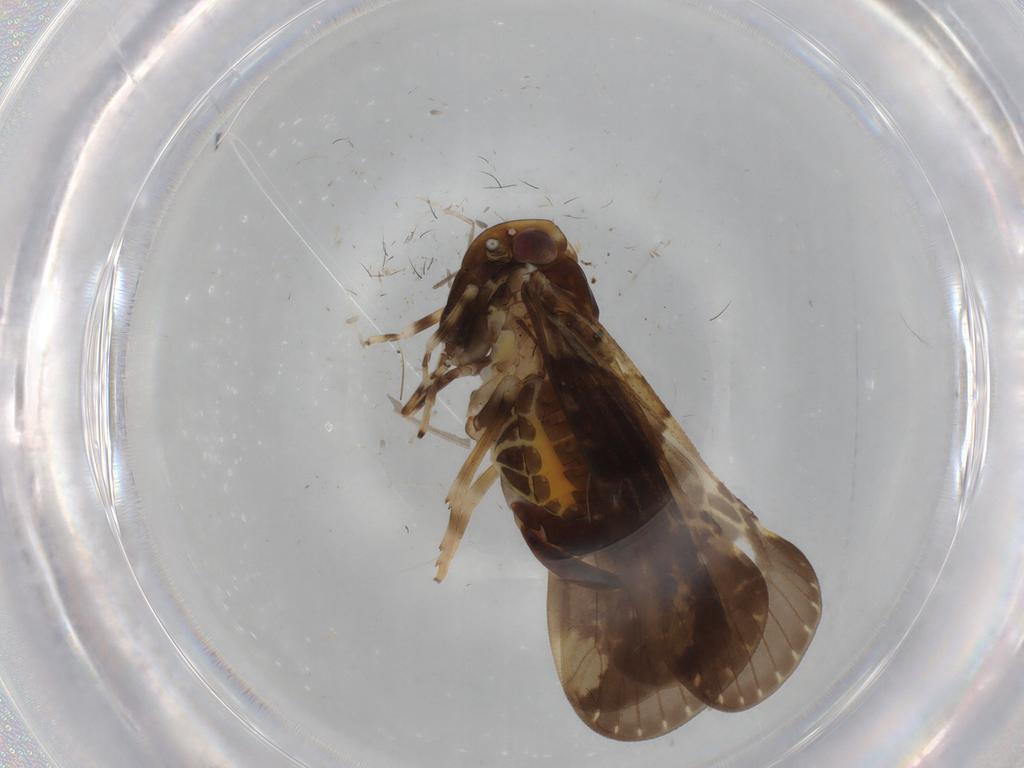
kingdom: Animalia
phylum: Arthropoda
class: Insecta
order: Hemiptera
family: Cixiidae
